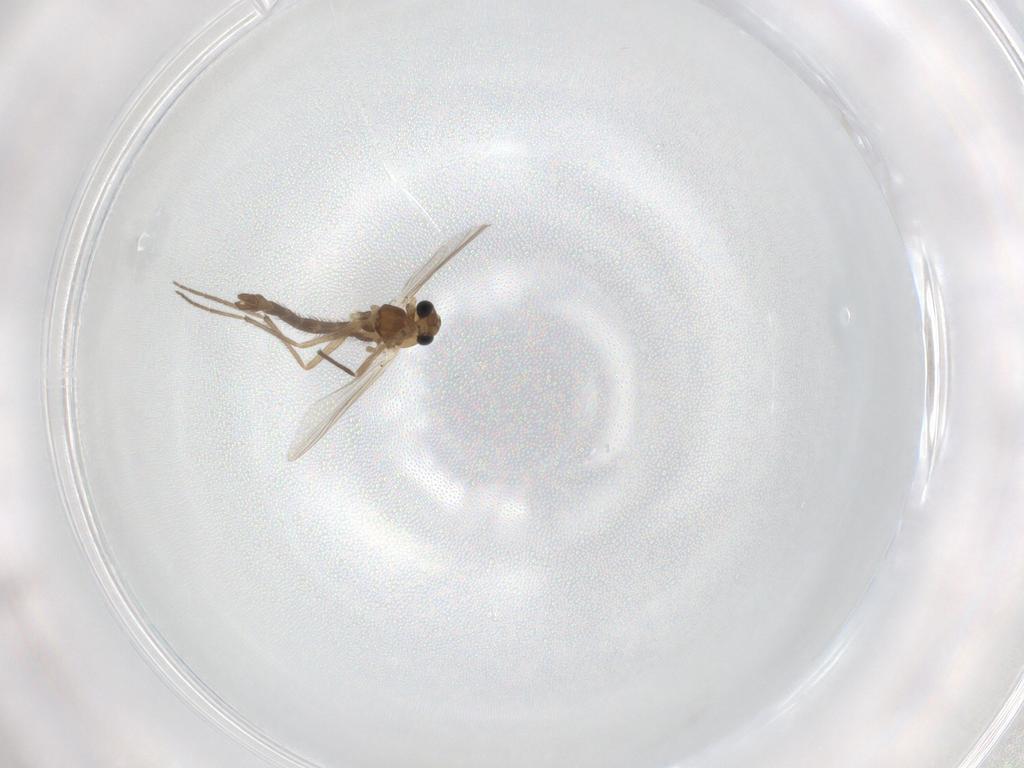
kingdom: Animalia
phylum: Arthropoda
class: Insecta
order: Diptera
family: Chironomidae
